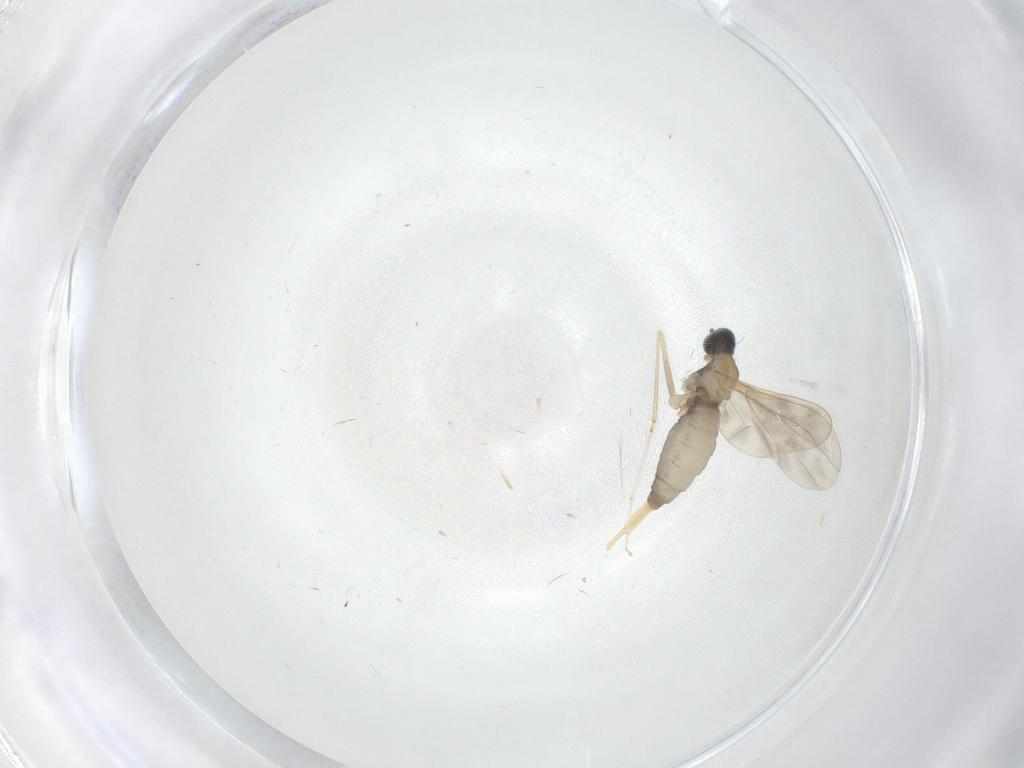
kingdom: Animalia
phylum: Arthropoda
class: Insecta
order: Diptera
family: Cecidomyiidae
